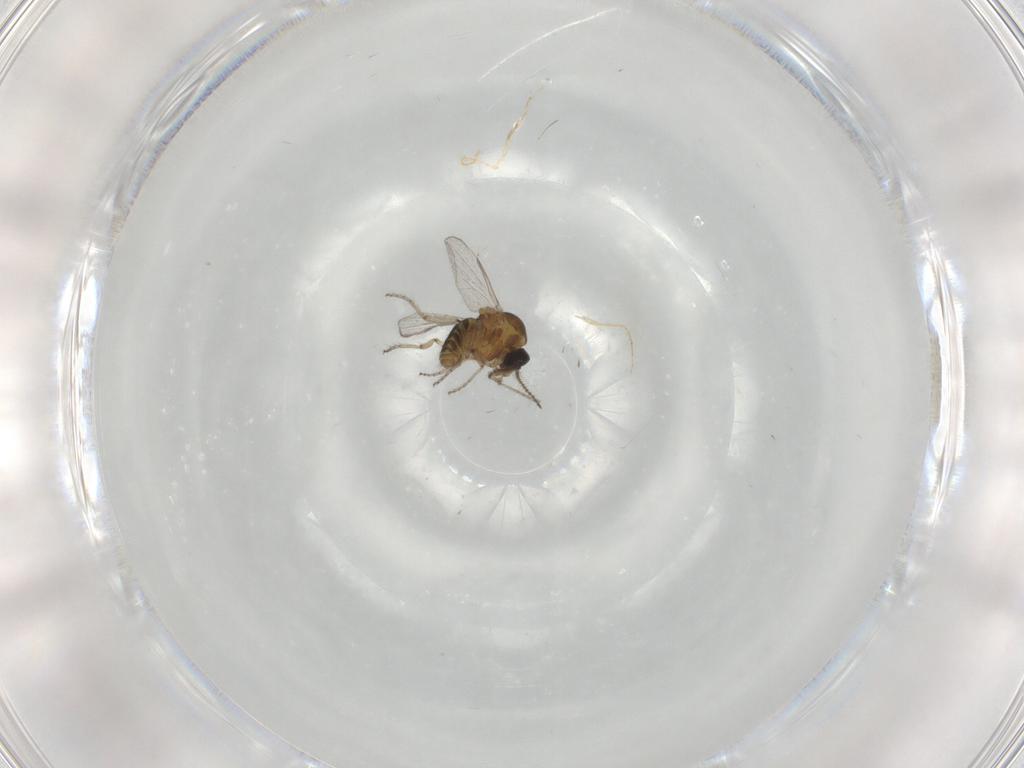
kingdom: Animalia
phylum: Arthropoda
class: Insecta
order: Diptera
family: Ceratopogonidae
